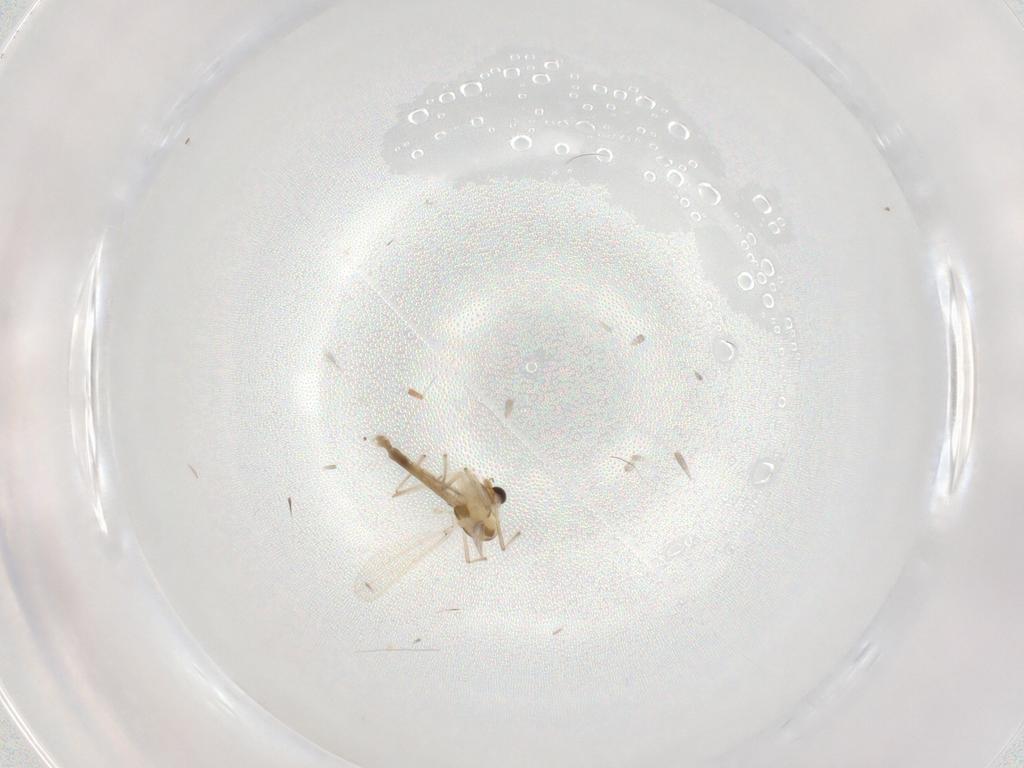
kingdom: Animalia
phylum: Arthropoda
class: Insecta
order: Diptera
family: Chironomidae
